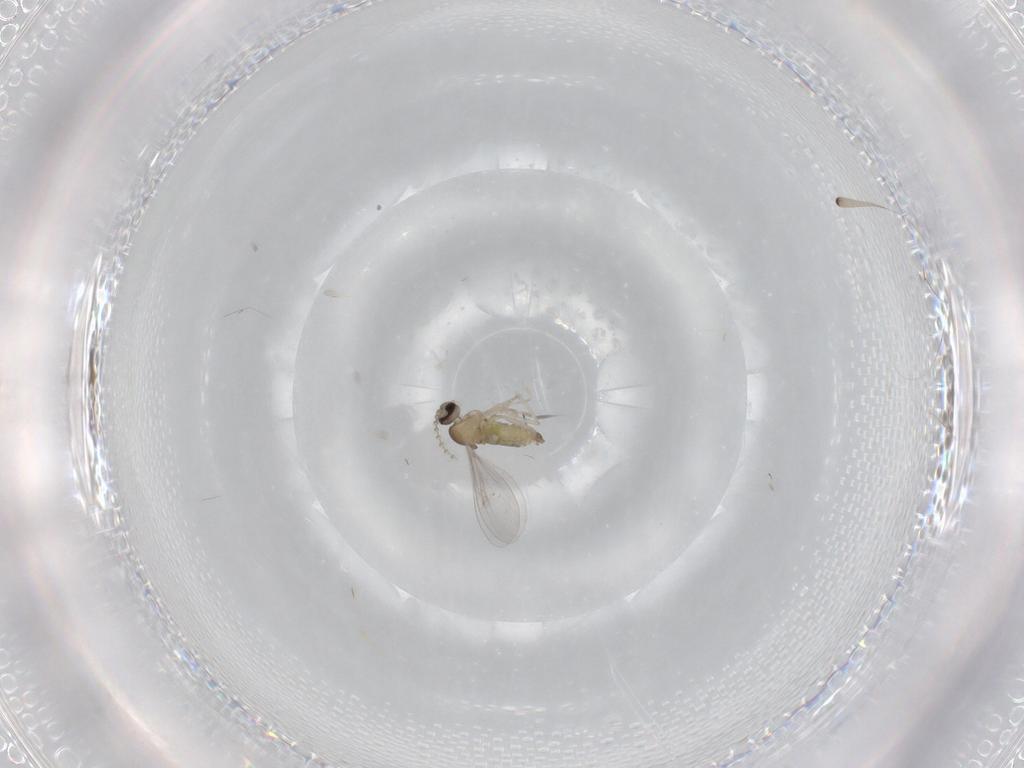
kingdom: Animalia
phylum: Arthropoda
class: Insecta
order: Diptera
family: Cecidomyiidae
